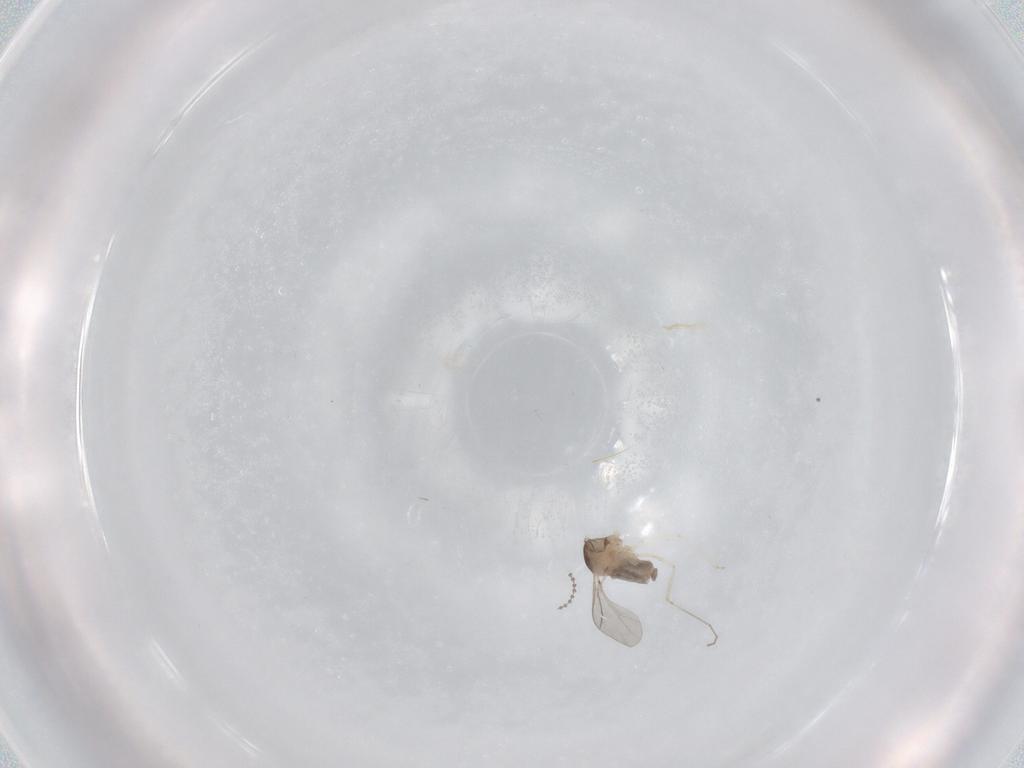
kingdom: Animalia
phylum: Arthropoda
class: Insecta
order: Diptera
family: Cecidomyiidae
